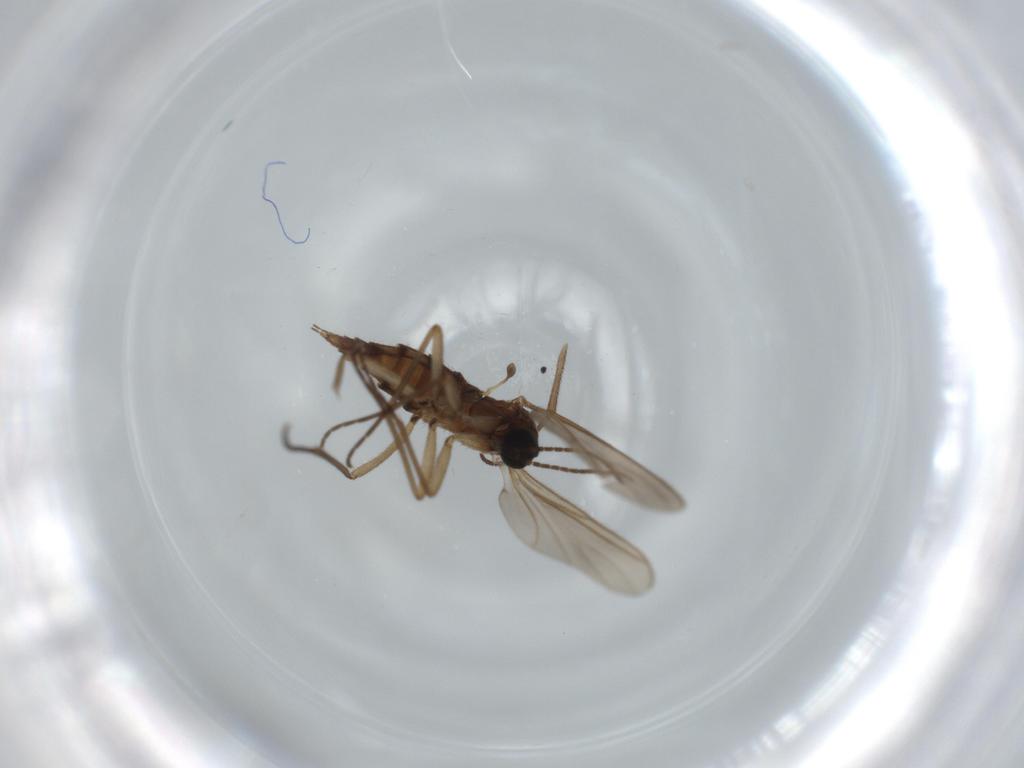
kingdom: Animalia
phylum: Arthropoda
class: Insecta
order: Diptera
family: Sciaridae
